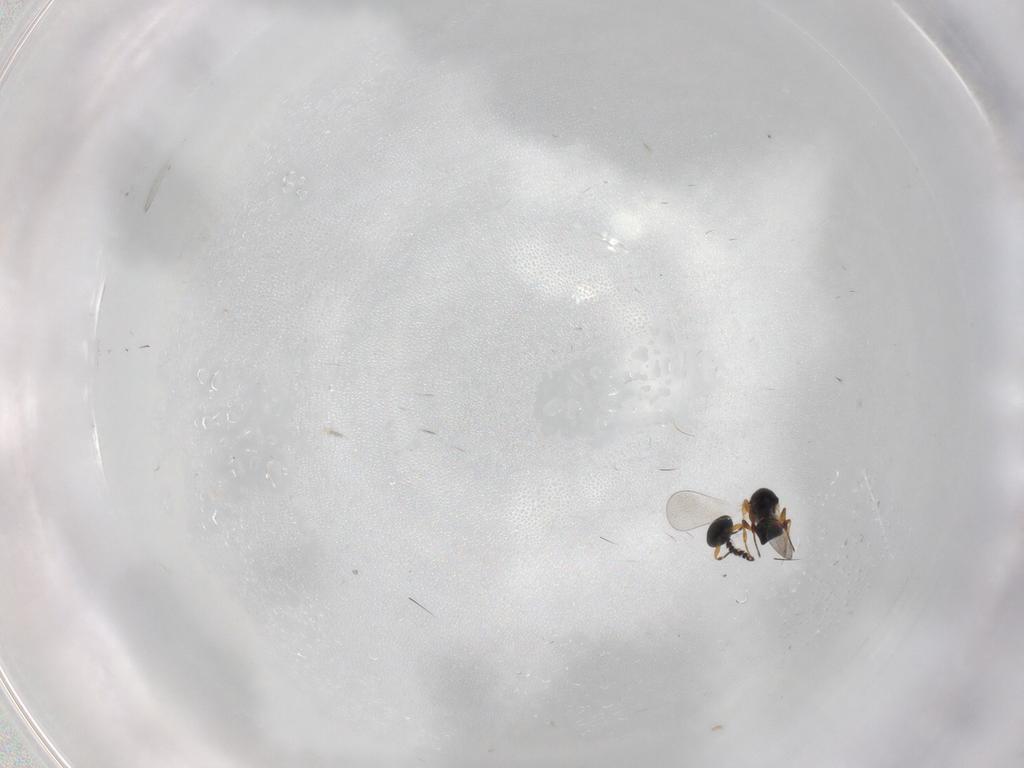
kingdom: Animalia
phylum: Arthropoda
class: Insecta
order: Hymenoptera
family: Platygastridae
